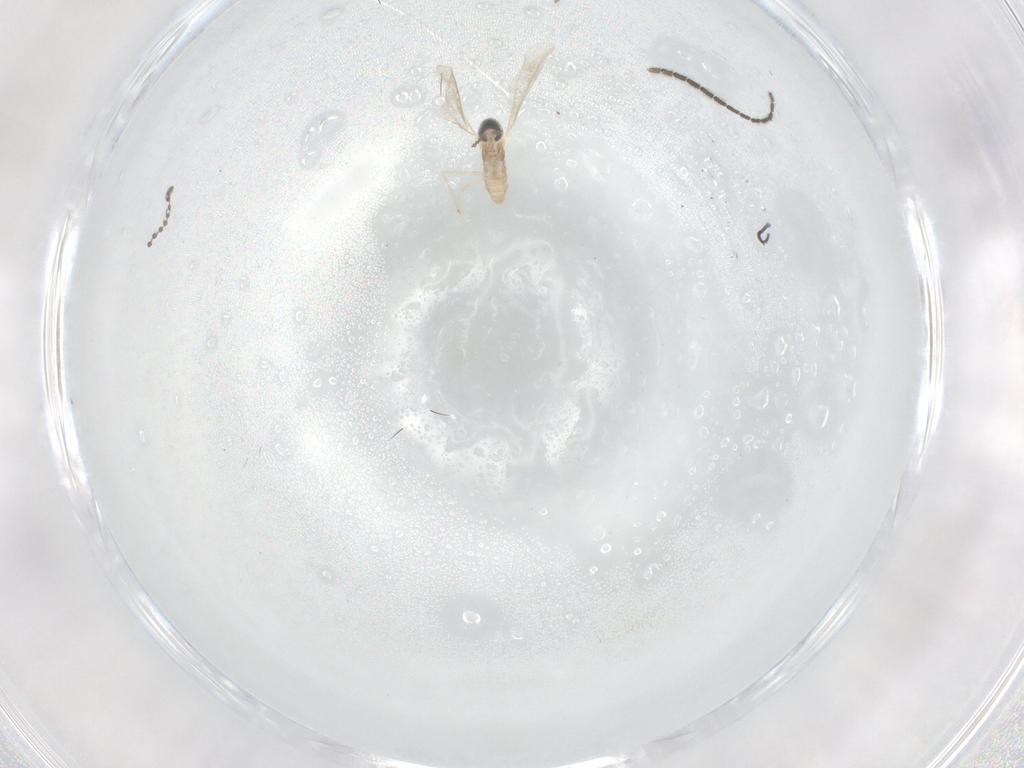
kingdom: Animalia
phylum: Arthropoda
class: Insecta
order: Diptera
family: Psychodidae
